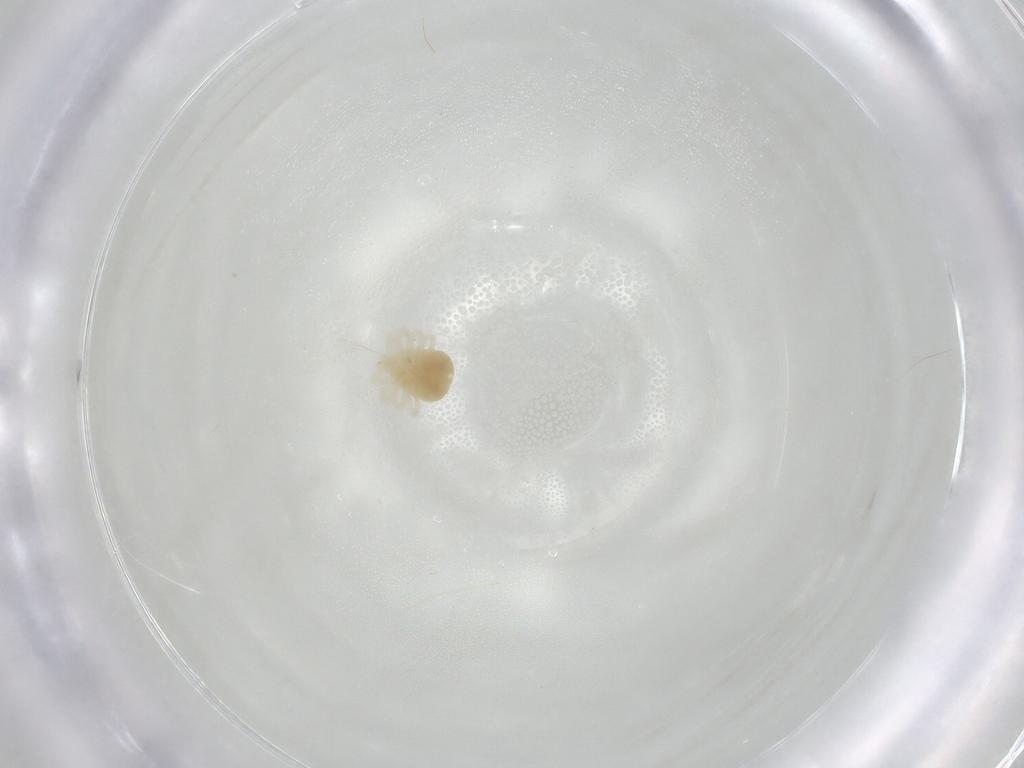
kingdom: Animalia
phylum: Arthropoda
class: Arachnida
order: Trombidiformes
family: Anystidae
